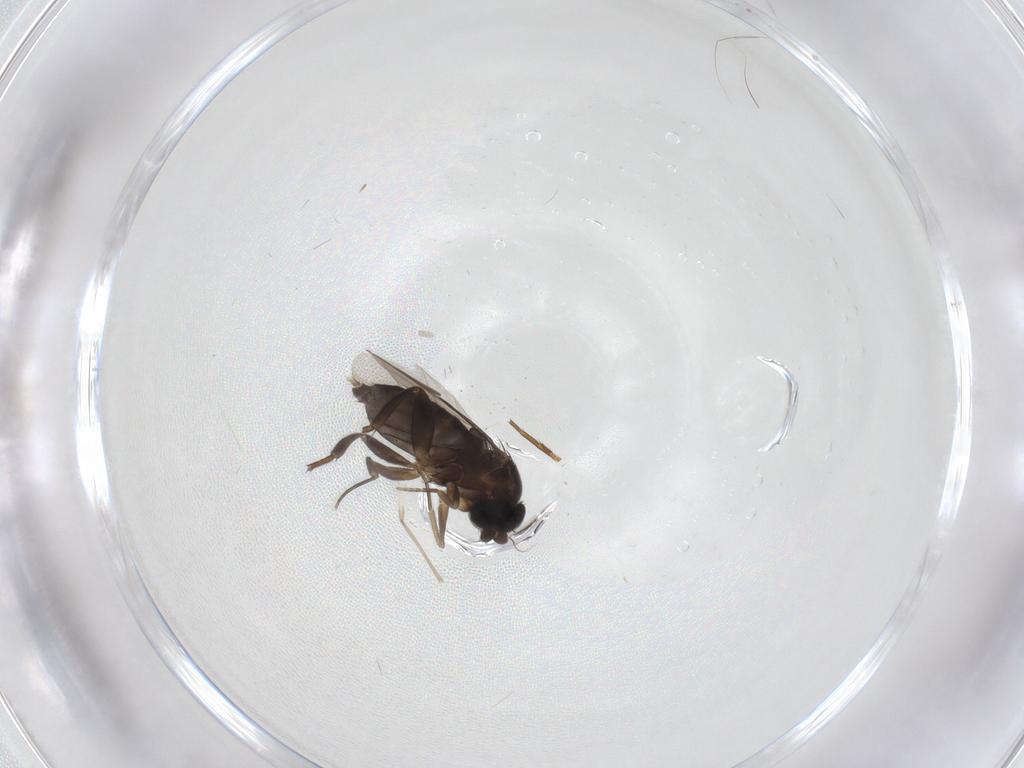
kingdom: Animalia
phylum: Arthropoda
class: Insecta
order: Diptera
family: Phoridae
